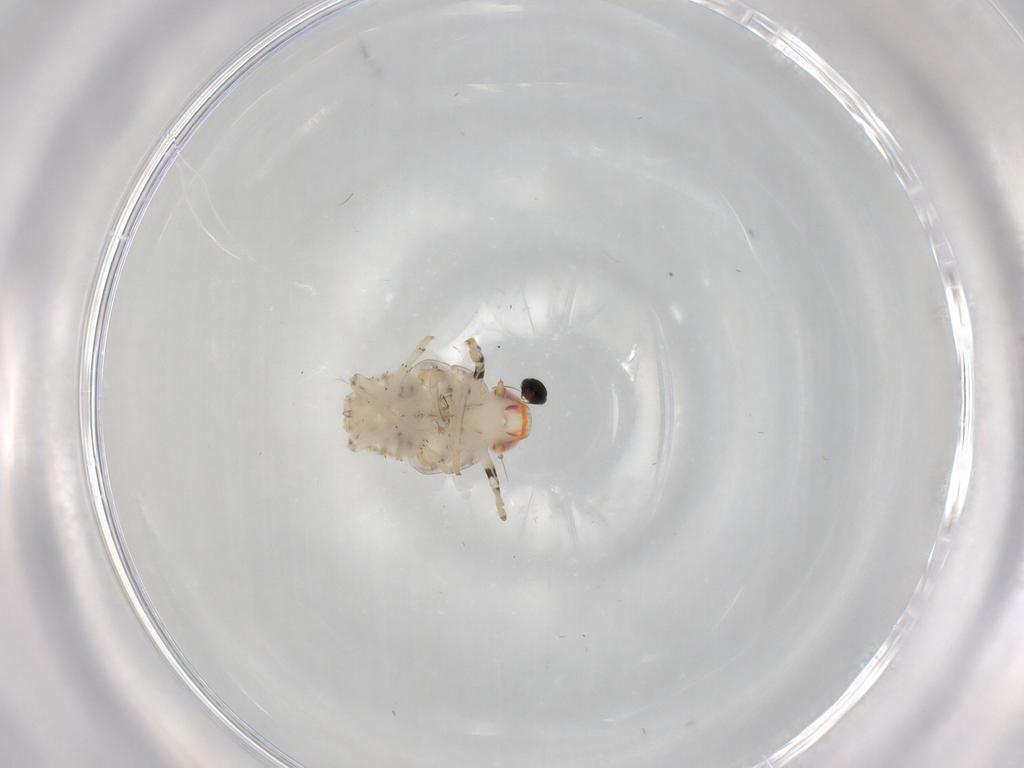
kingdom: Animalia
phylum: Arthropoda
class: Insecta
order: Hemiptera
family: Issidae
